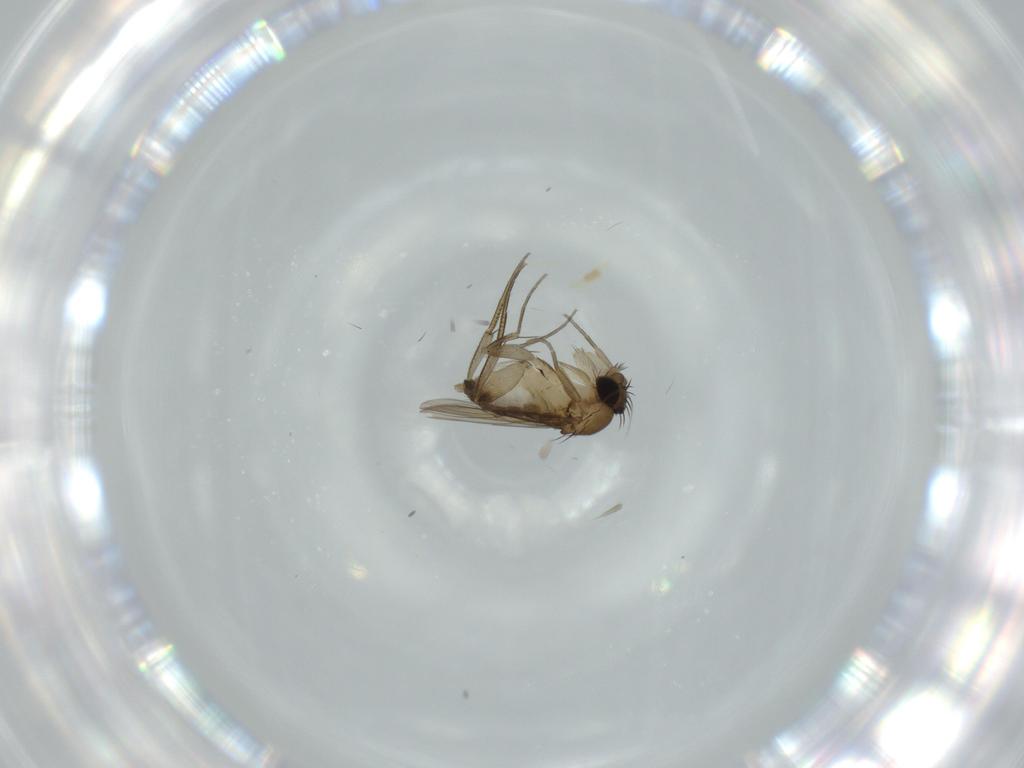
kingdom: Animalia
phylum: Arthropoda
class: Insecta
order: Diptera
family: Phoridae
